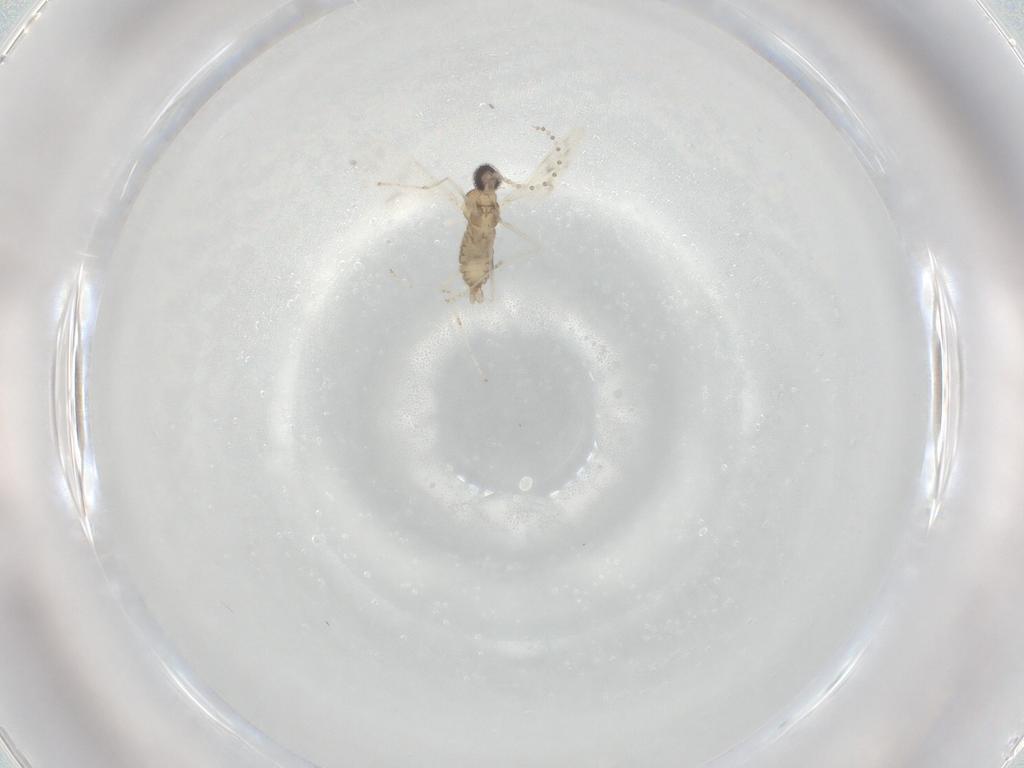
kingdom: Animalia
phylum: Arthropoda
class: Insecta
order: Diptera
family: Cecidomyiidae
